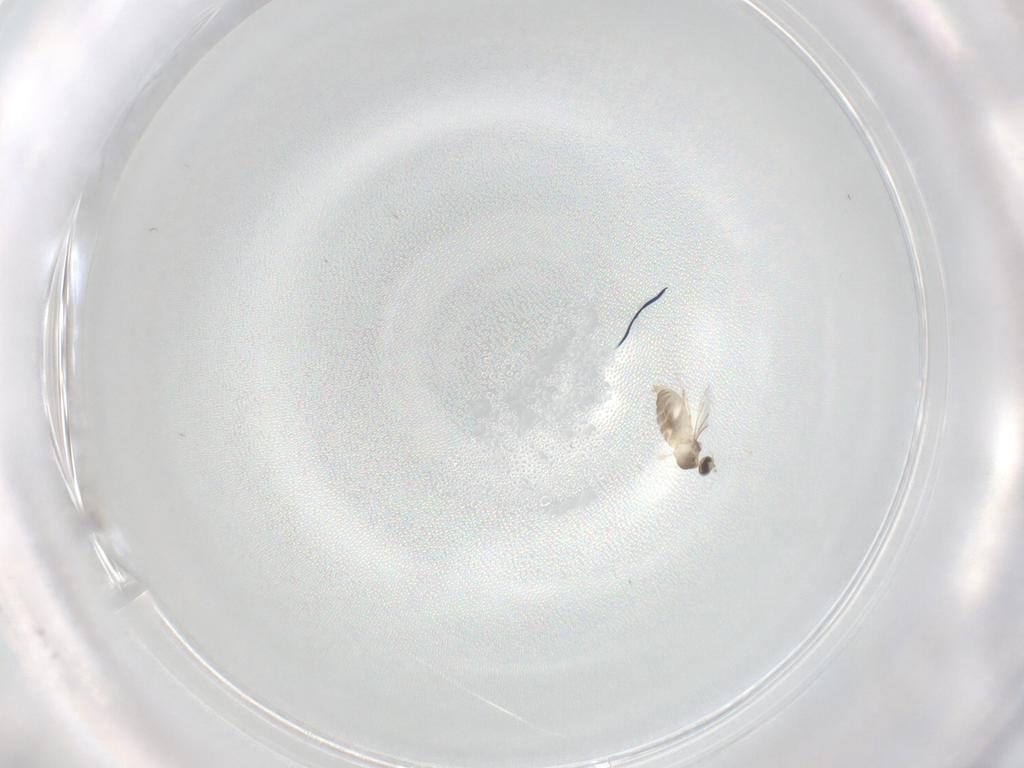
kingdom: Animalia
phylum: Arthropoda
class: Insecta
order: Diptera
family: Cecidomyiidae
